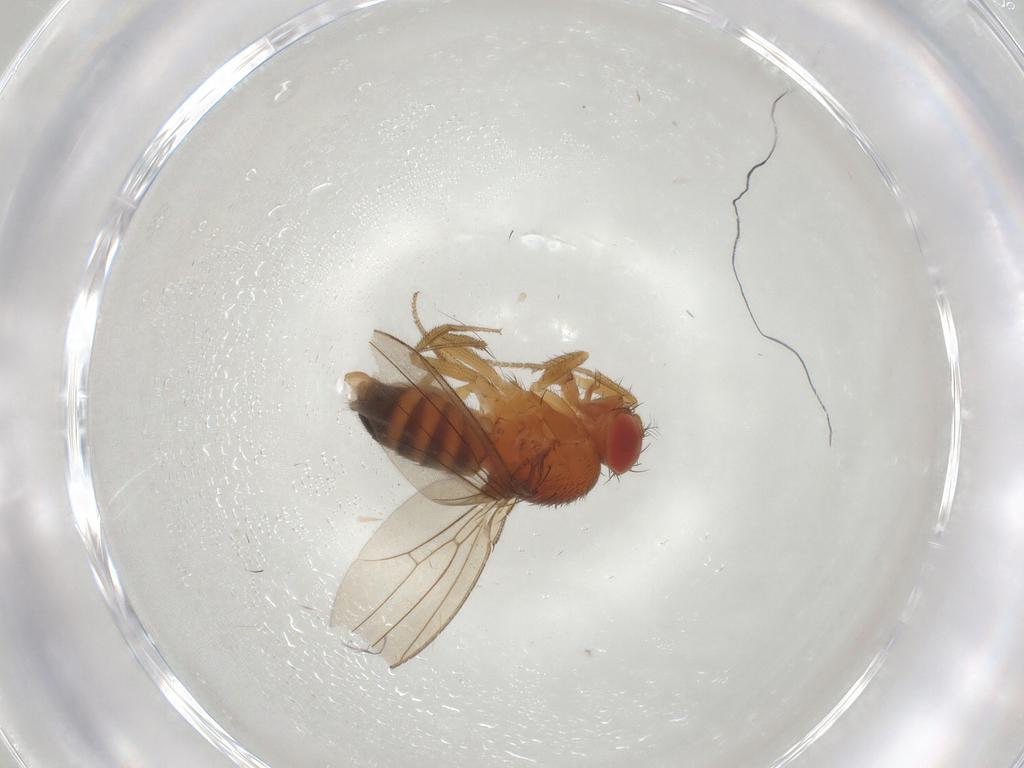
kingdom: Animalia
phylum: Arthropoda
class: Insecta
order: Diptera
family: Drosophilidae
